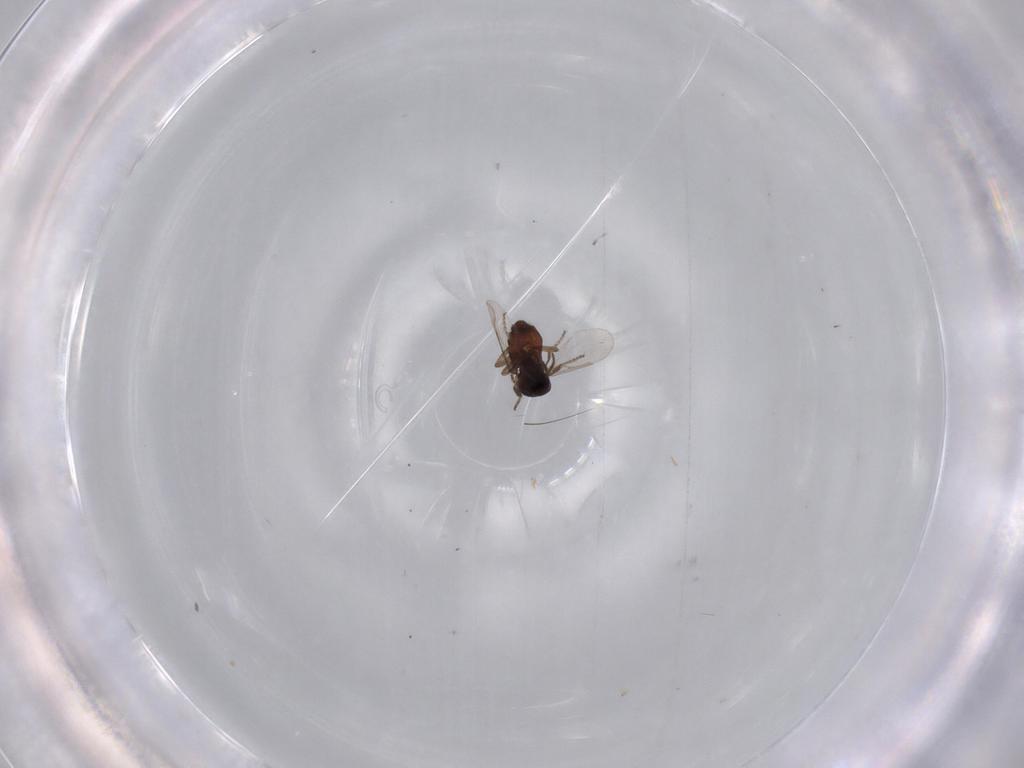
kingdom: Animalia
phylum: Arthropoda
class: Insecta
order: Diptera
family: Ceratopogonidae
